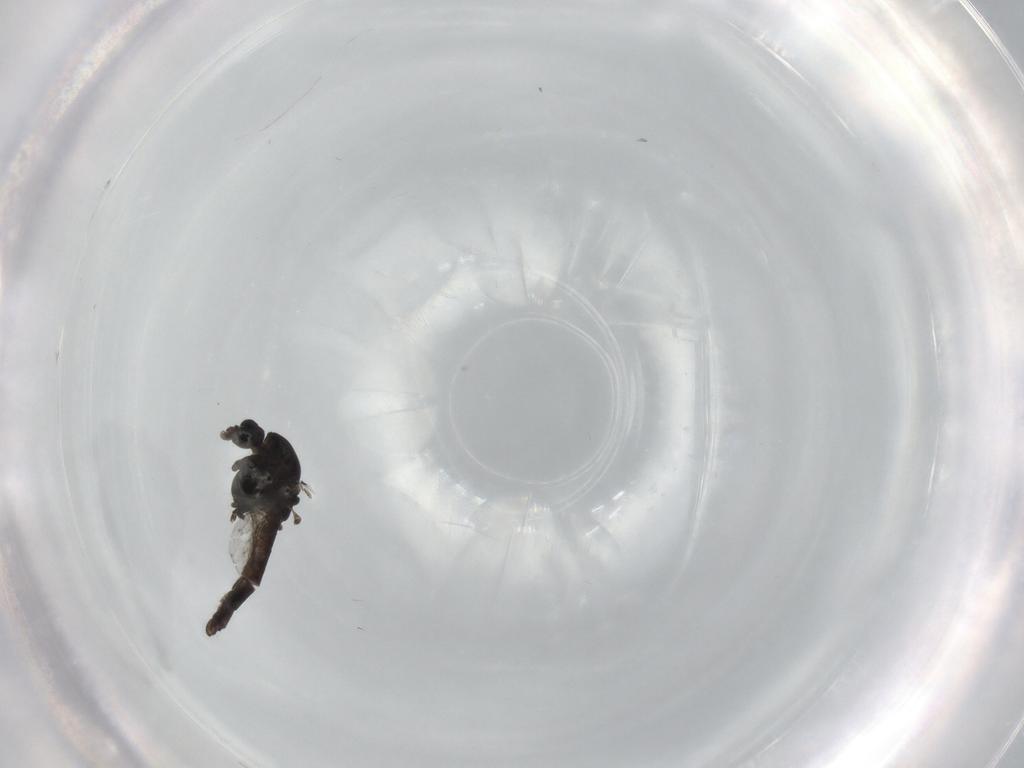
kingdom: Animalia
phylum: Arthropoda
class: Insecta
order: Diptera
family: Chironomidae
